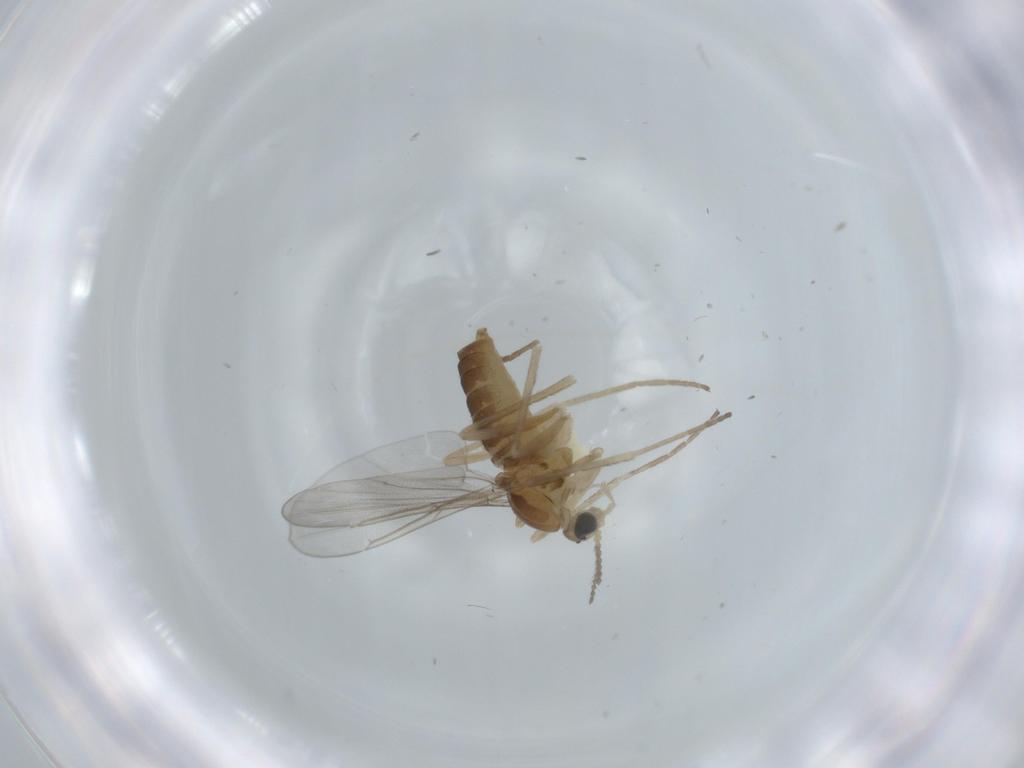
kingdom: Animalia
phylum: Arthropoda
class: Insecta
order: Diptera
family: Cecidomyiidae
